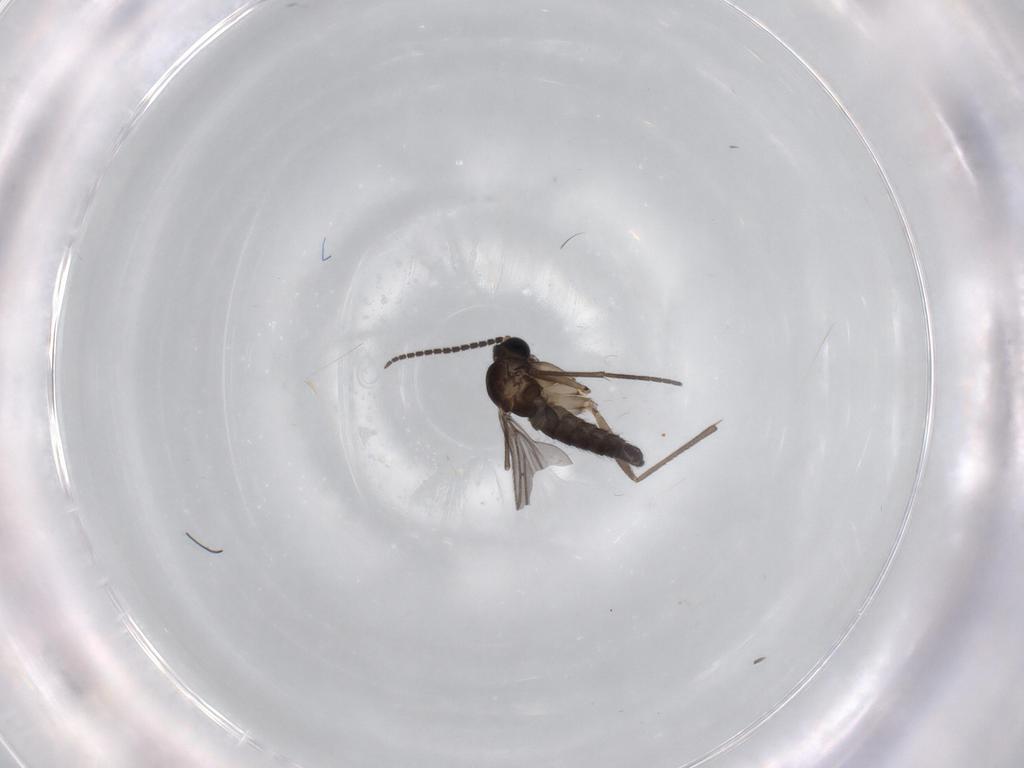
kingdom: Animalia
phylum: Arthropoda
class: Insecta
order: Diptera
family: Sciaridae
